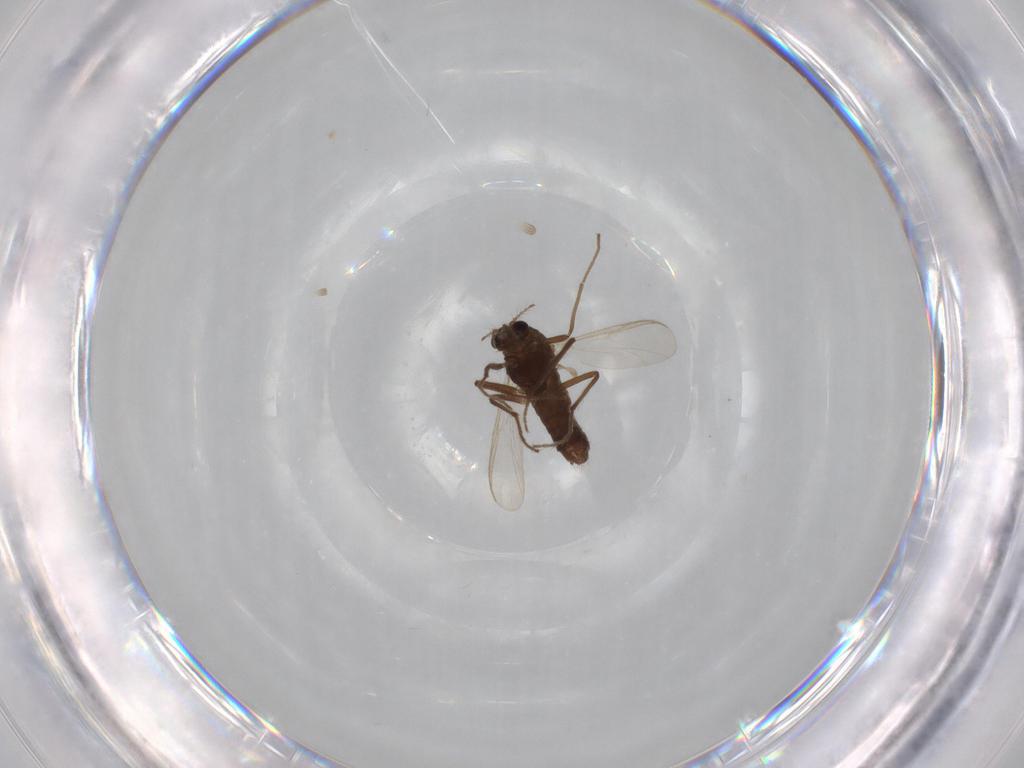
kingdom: Animalia
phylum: Arthropoda
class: Insecta
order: Diptera
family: Chironomidae
